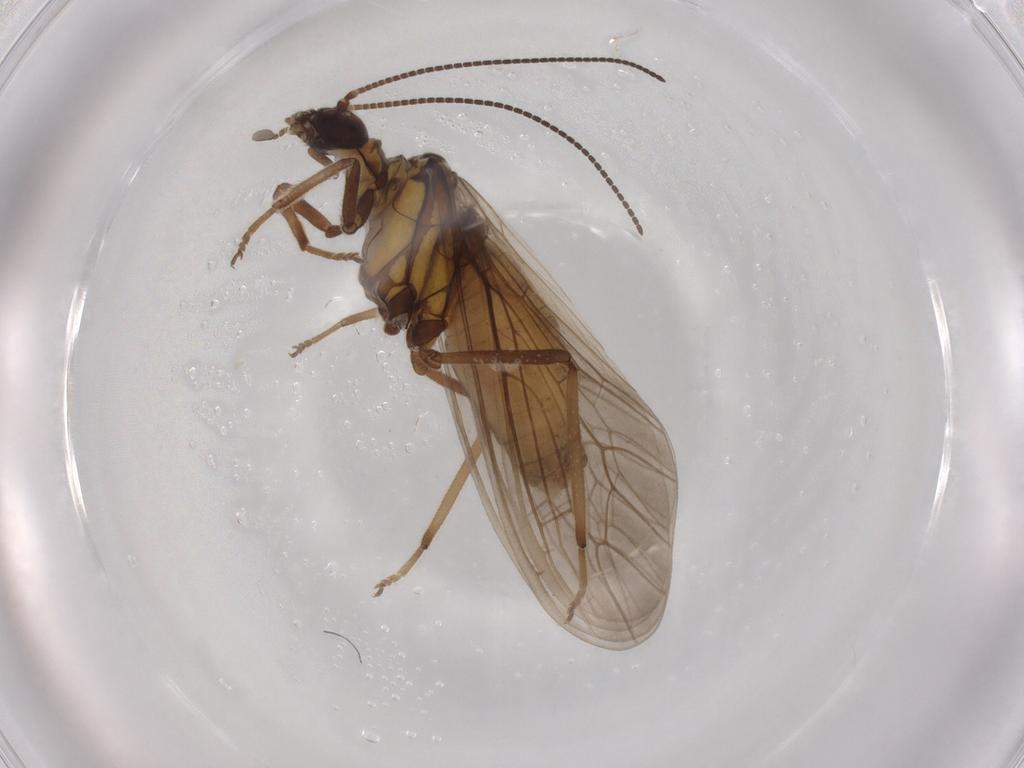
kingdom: Animalia
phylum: Arthropoda
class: Insecta
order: Neuroptera
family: Coniopterygidae
